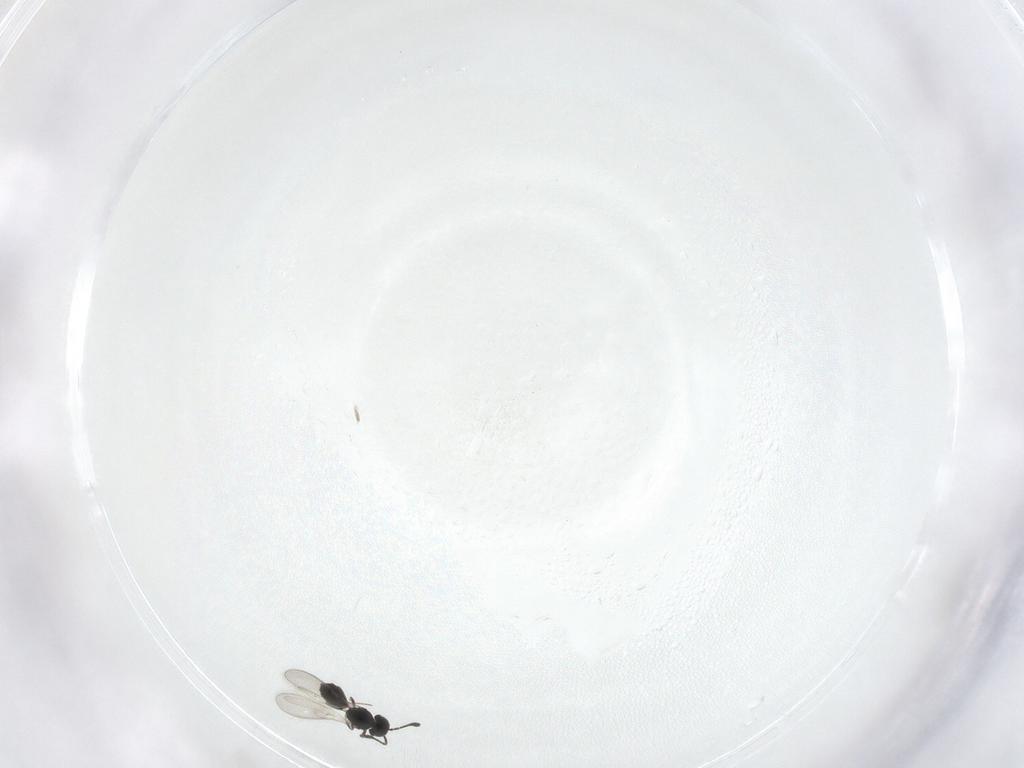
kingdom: Animalia
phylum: Arthropoda
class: Insecta
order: Hymenoptera
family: Scelionidae
